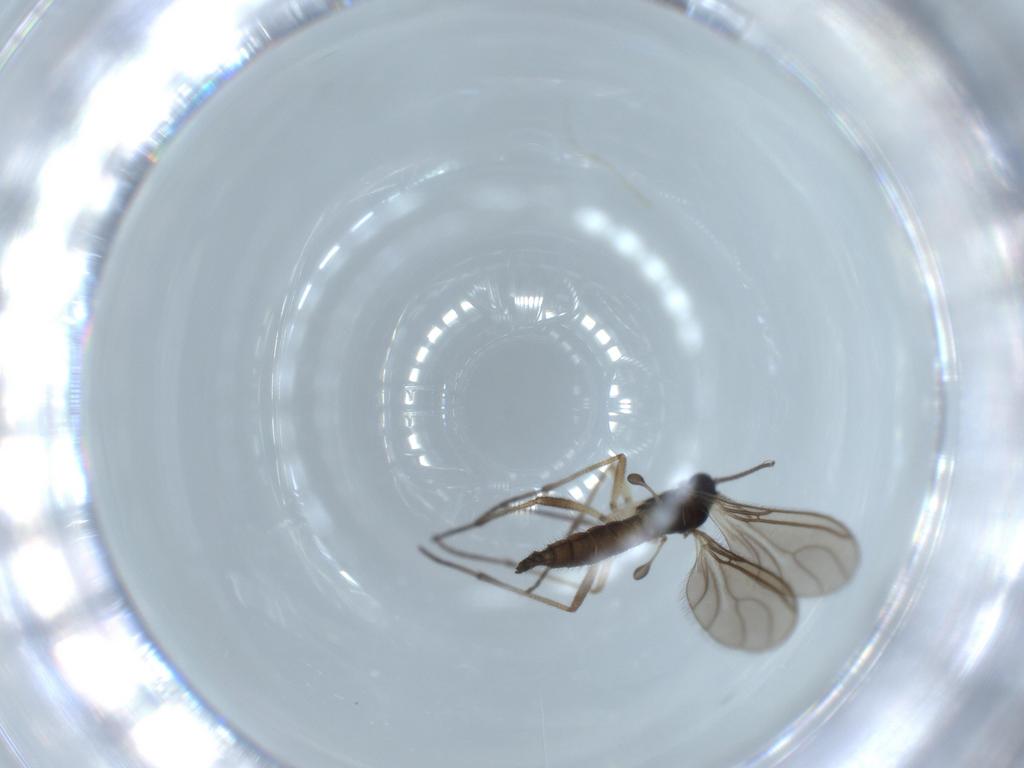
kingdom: Animalia
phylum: Arthropoda
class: Insecta
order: Diptera
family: Sciaridae
